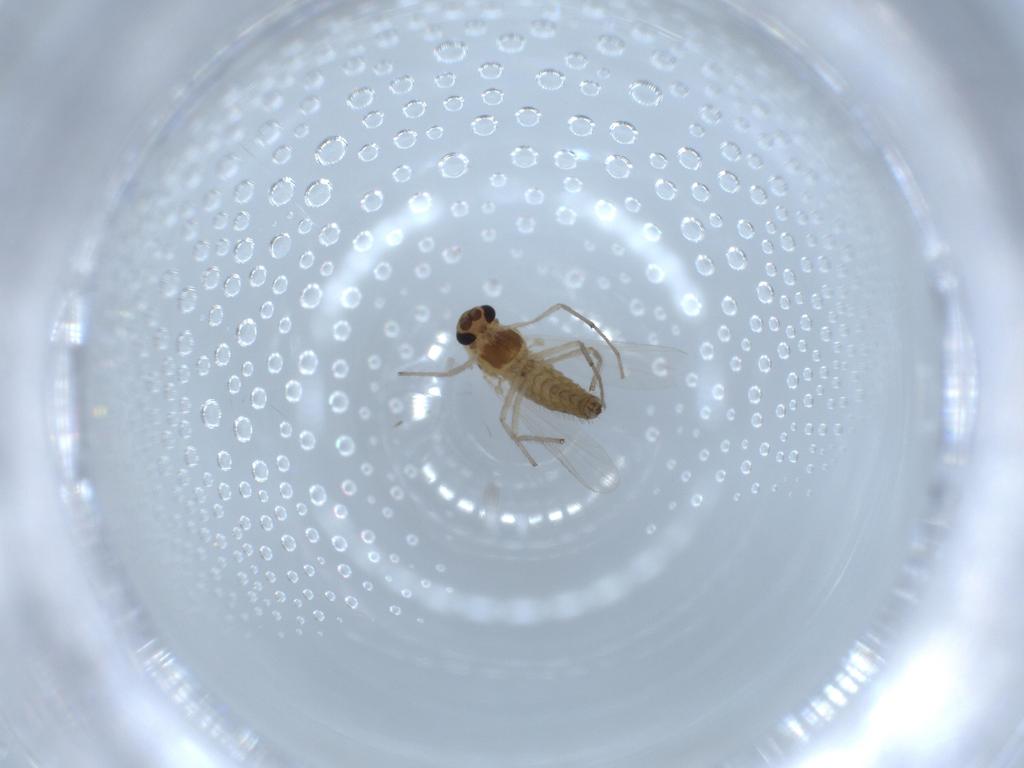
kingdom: Animalia
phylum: Arthropoda
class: Insecta
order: Diptera
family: Chironomidae
